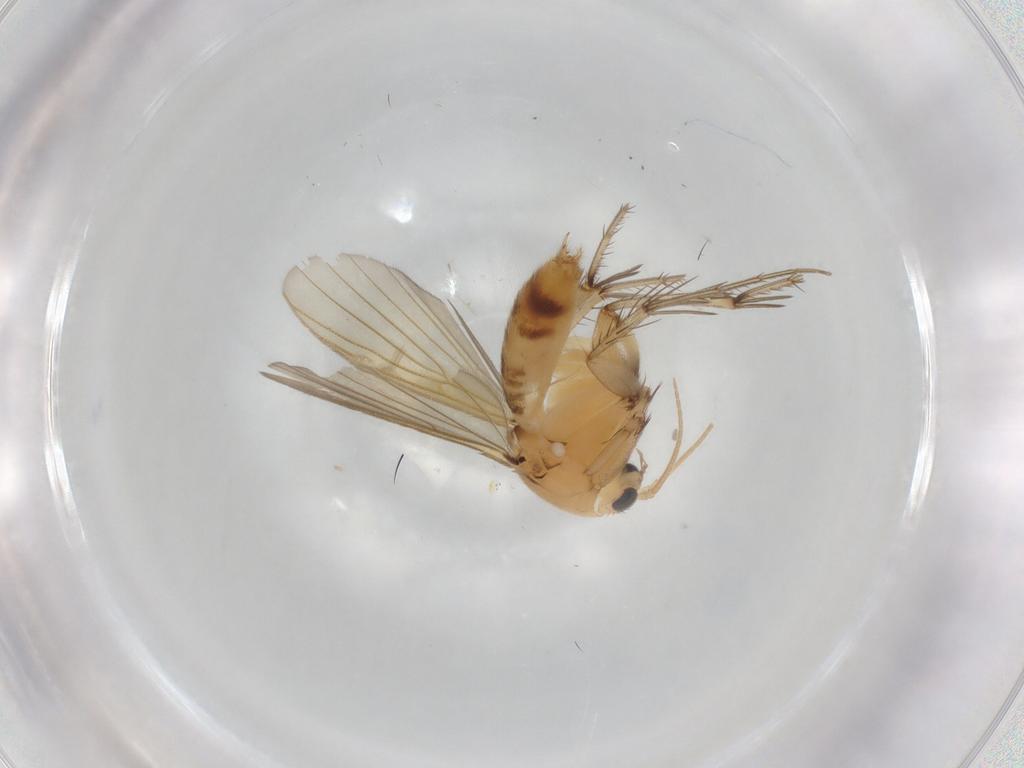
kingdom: Animalia
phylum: Arthropoda
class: Insecta
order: Diptera
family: Mycetophilidae
